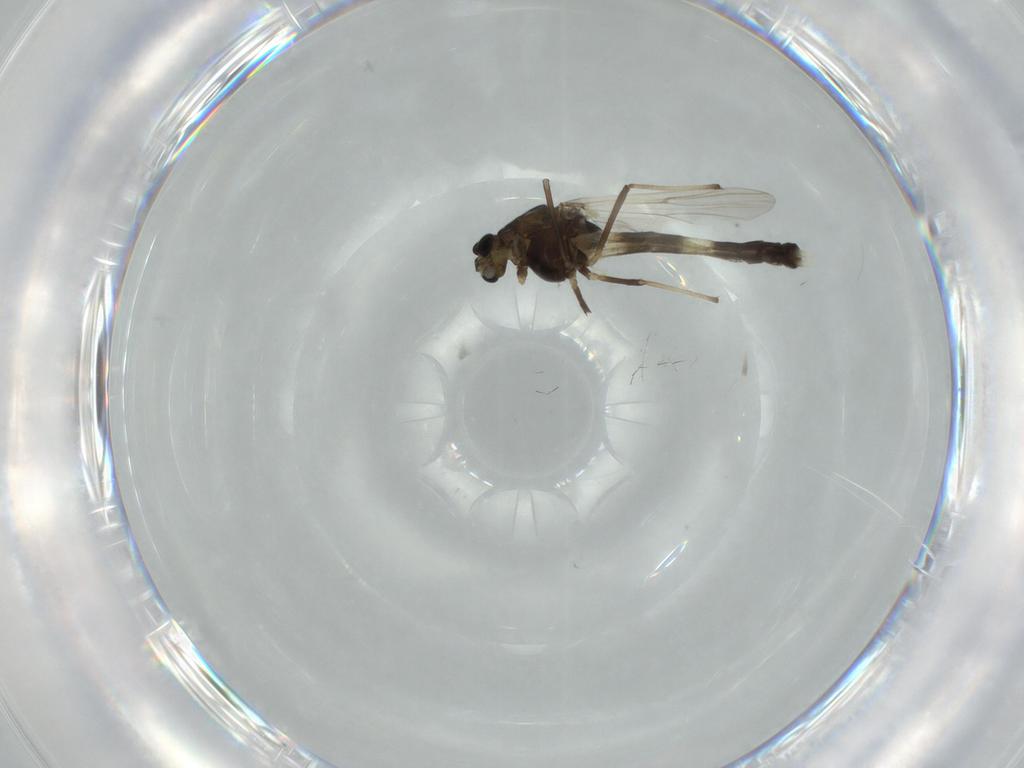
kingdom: Animalia
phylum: Arthropoda
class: Insecta
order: Diptera
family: Chironomidae
